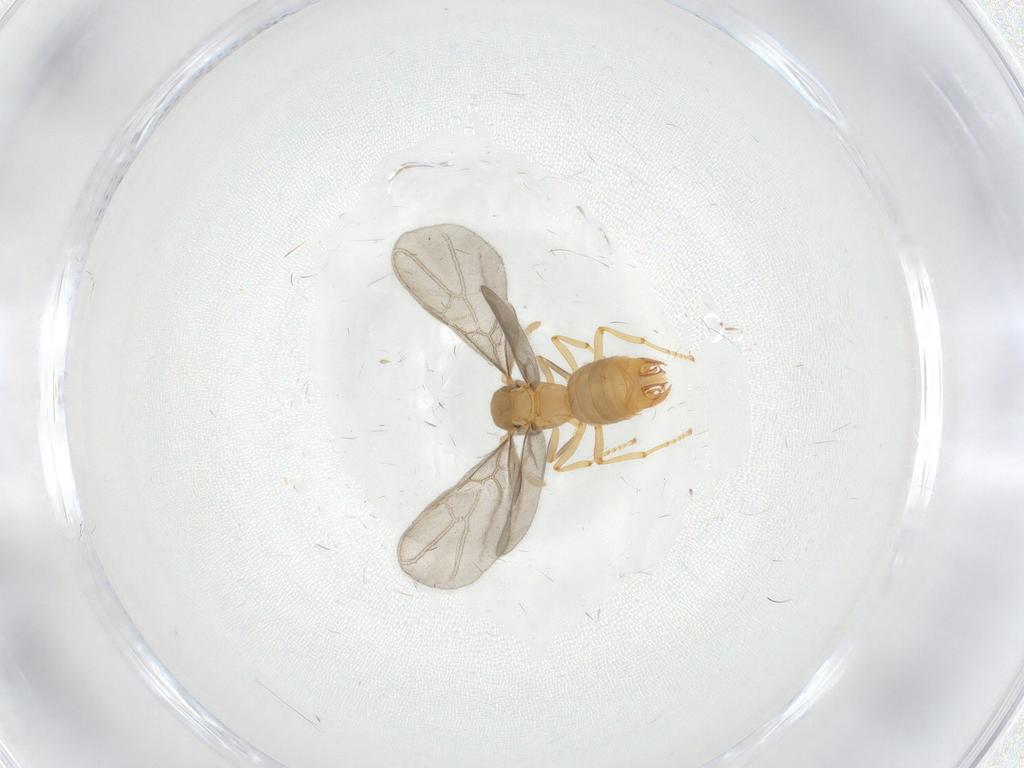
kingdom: Animalia
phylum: Arthropoda
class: Insecta
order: Hymenoptera
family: Formicidae
